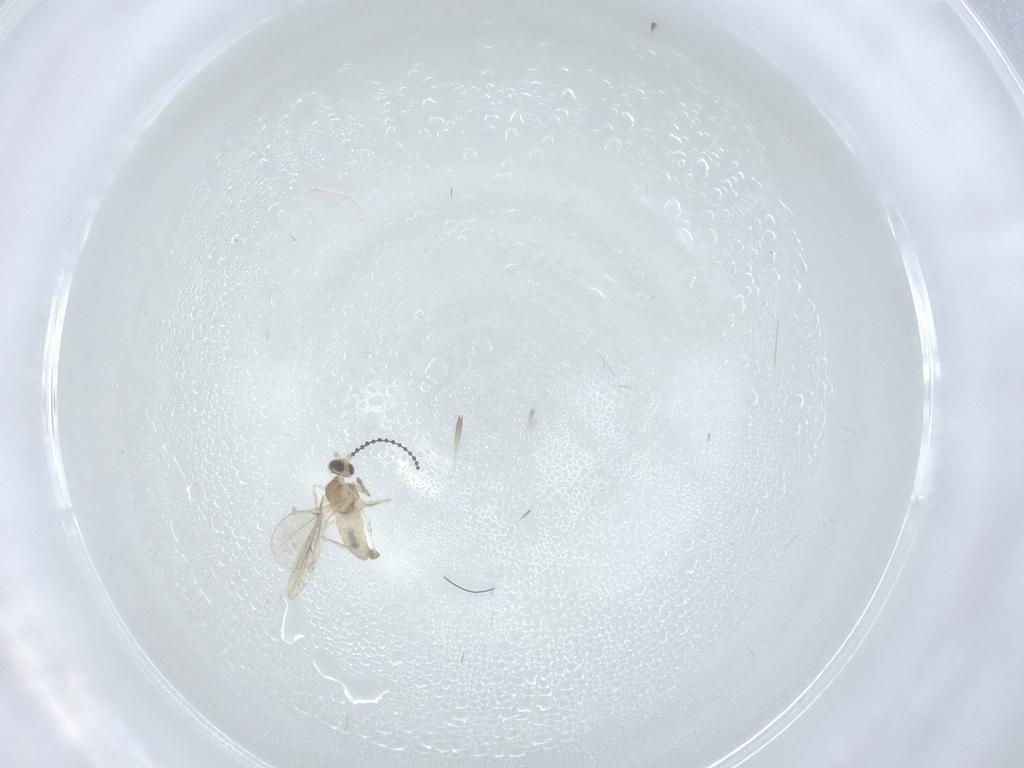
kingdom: Animalia
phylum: Arthropoda
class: Insecta
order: Diptera
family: Cecidomyiidae
